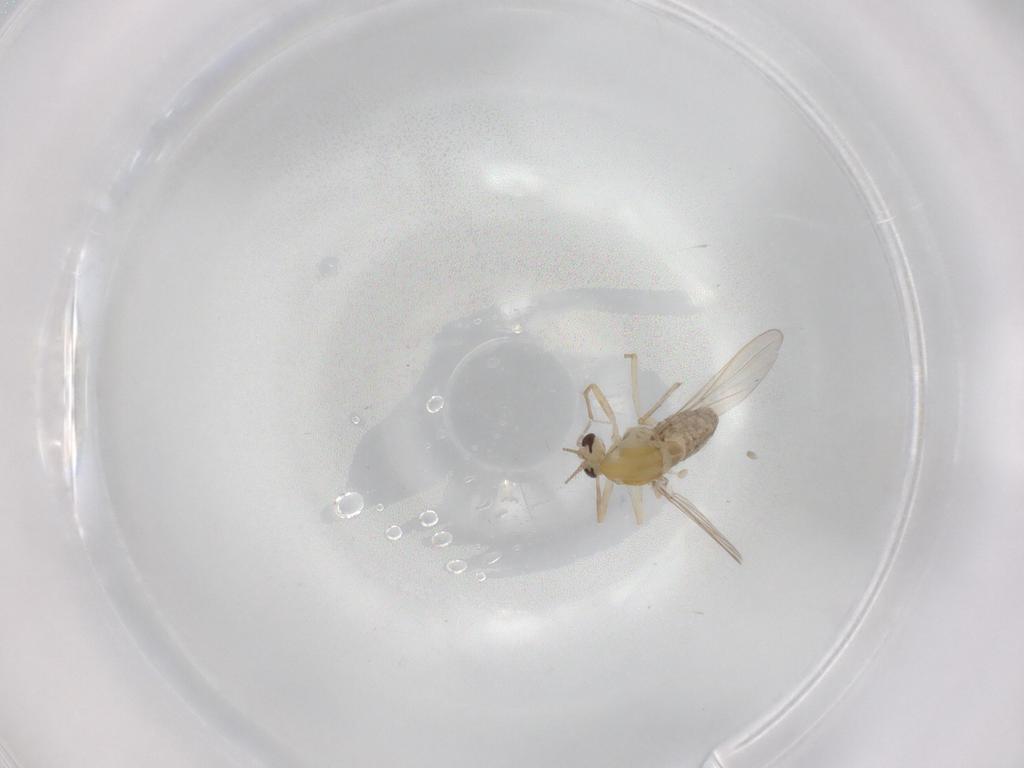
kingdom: Animalia
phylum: Arthropoda
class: Insecta
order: Diptera
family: Chironomidae
